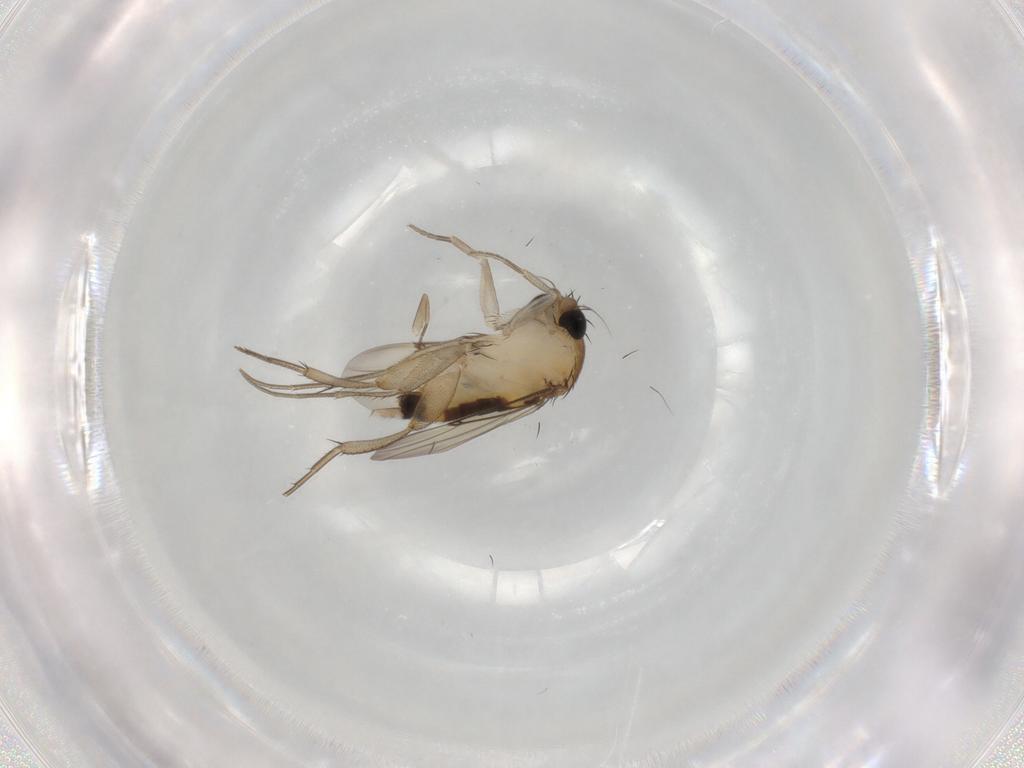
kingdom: Animalia
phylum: Arthropoda
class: Insecta
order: Diptera
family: Phoridae
